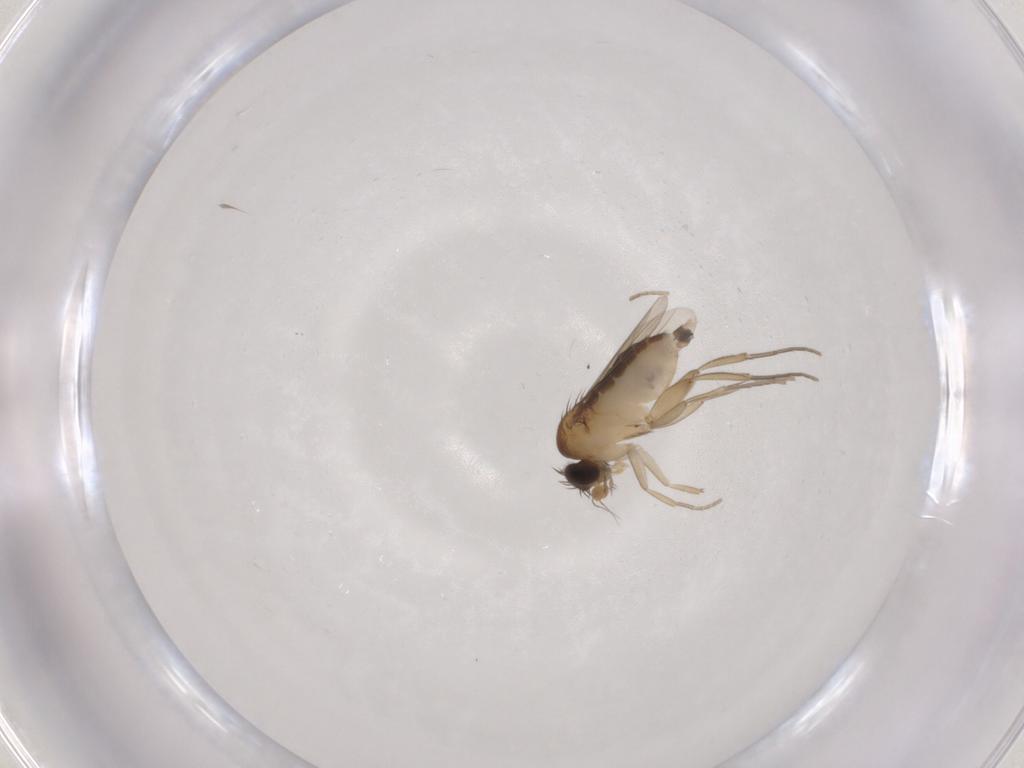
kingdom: Animalia
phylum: Arthropoda
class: Insecta
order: Diptera
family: Phoridae
